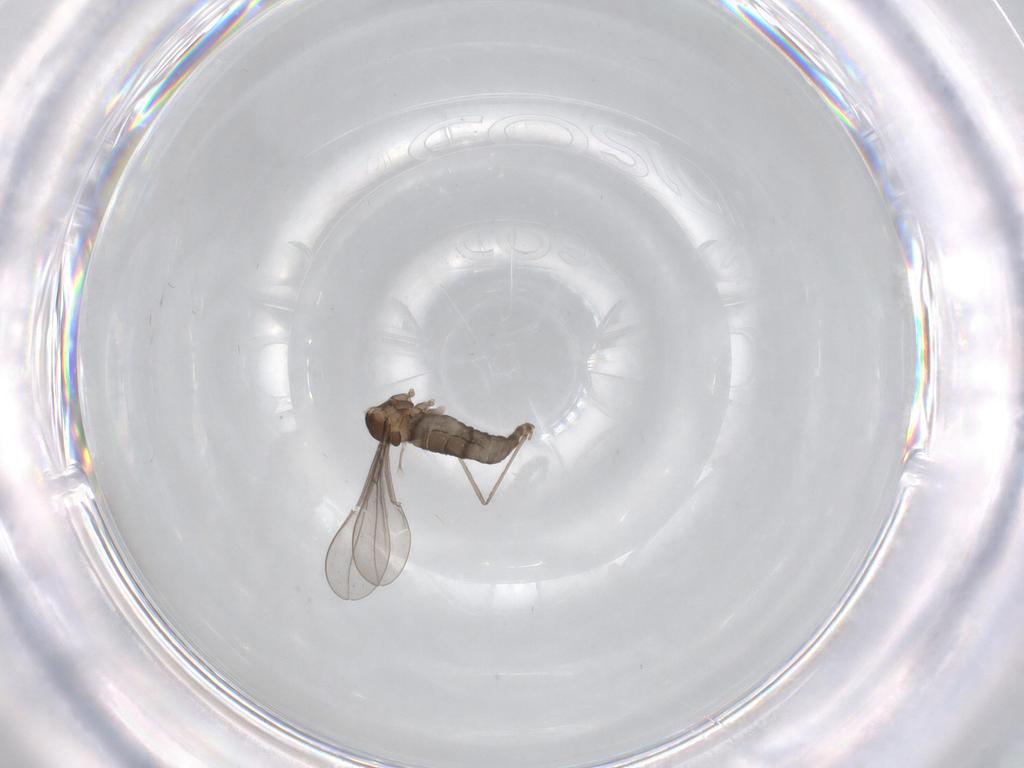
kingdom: Animalia
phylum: Arthropoda
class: Insecta
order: Diptera
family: Cecidomyiidae
